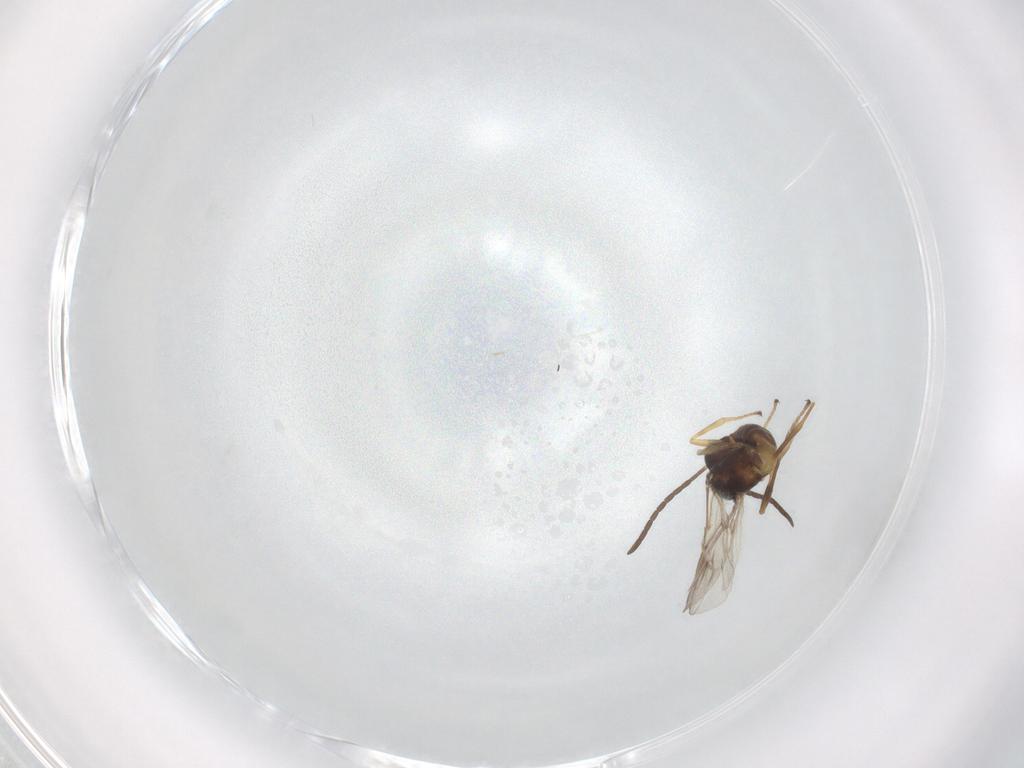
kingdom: Animalia
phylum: Arthropoda
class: Insecta
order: Hymenoptera
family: Braconidae
